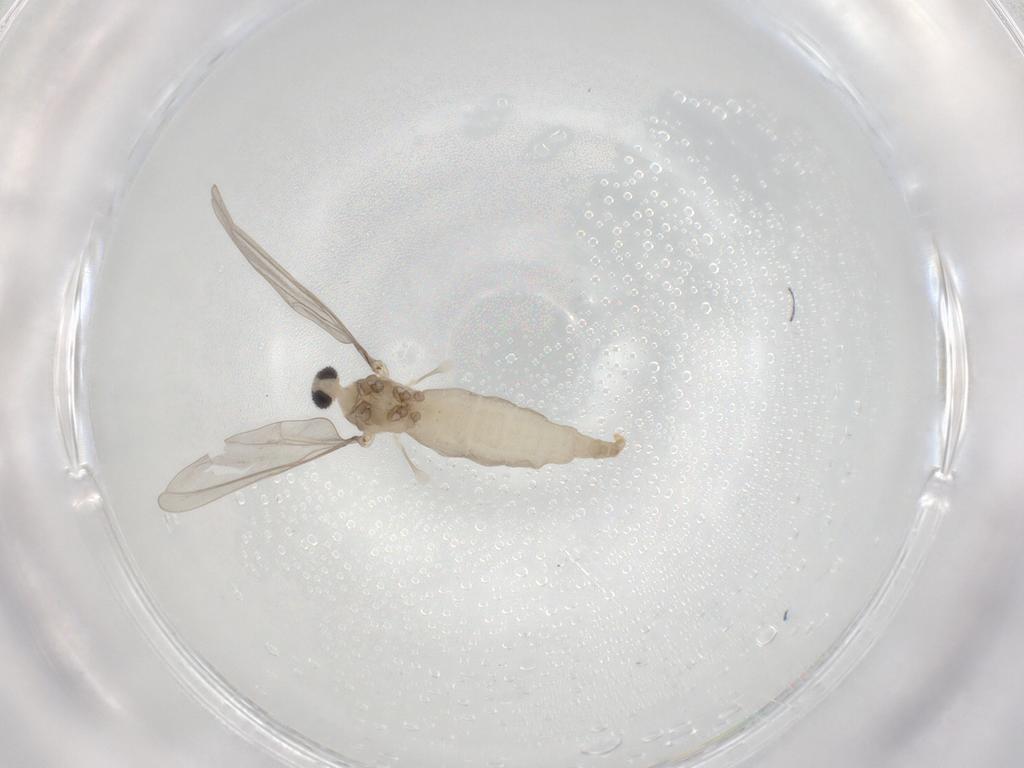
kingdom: Animalia
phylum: Arthropoda
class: Insecta
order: Diptera
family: Cecidomyiidae
